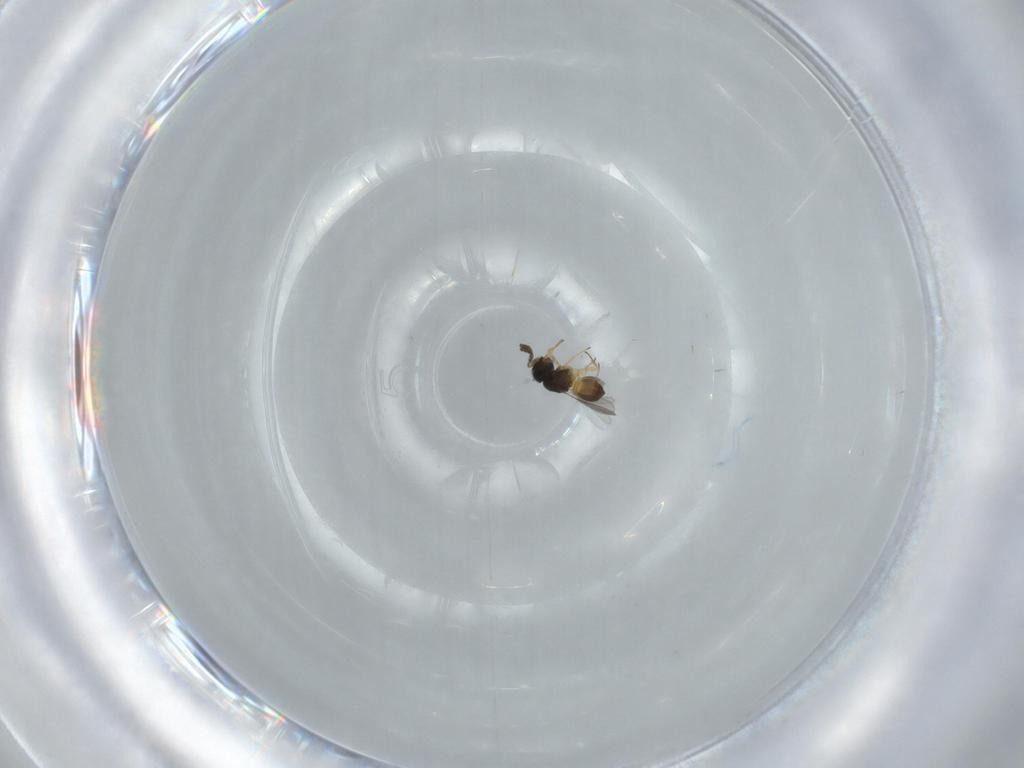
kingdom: Animalia
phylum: Arthropoda
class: Insecta
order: Hymenoptera
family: Scelionidae
